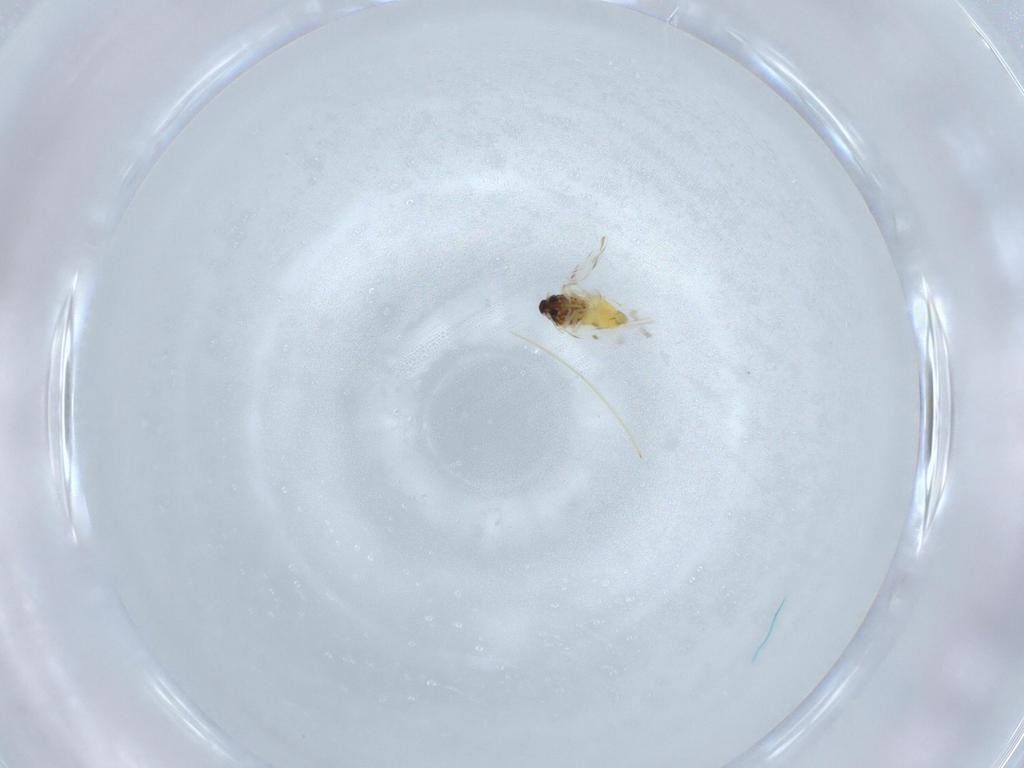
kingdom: Animalia
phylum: Arthropoda
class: Insecta
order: Hemiptera
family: Aleyrodidae
